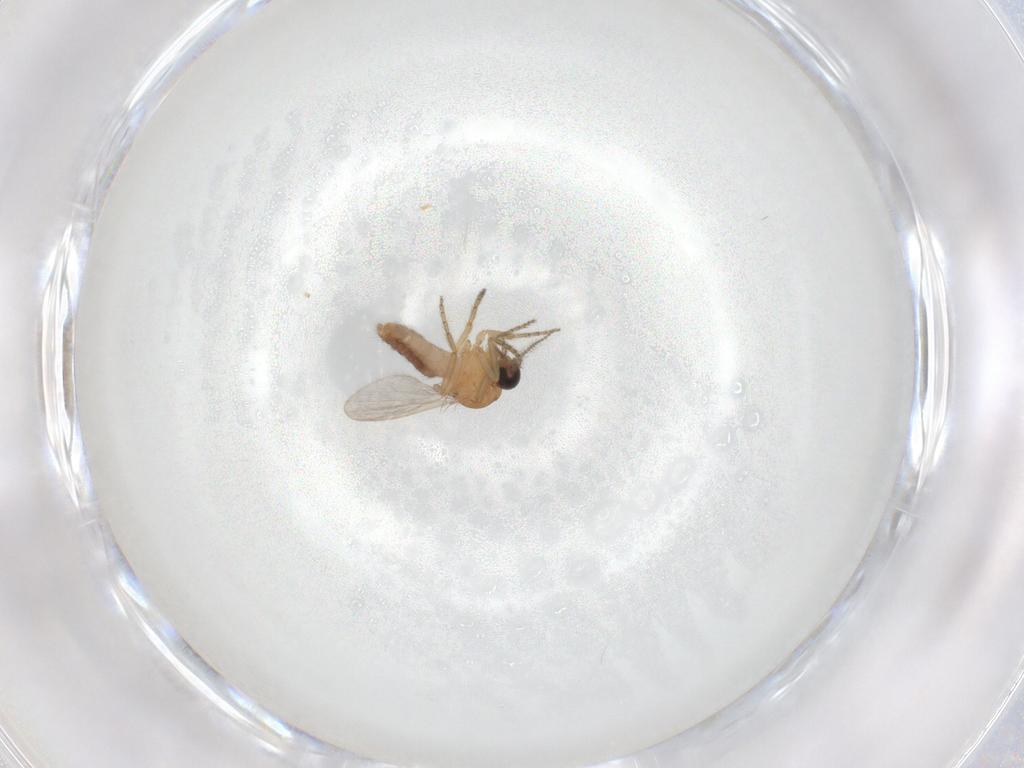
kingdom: Animalia
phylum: Arthropoda
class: Insecta
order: Diptera
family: Ceratopogonidae
